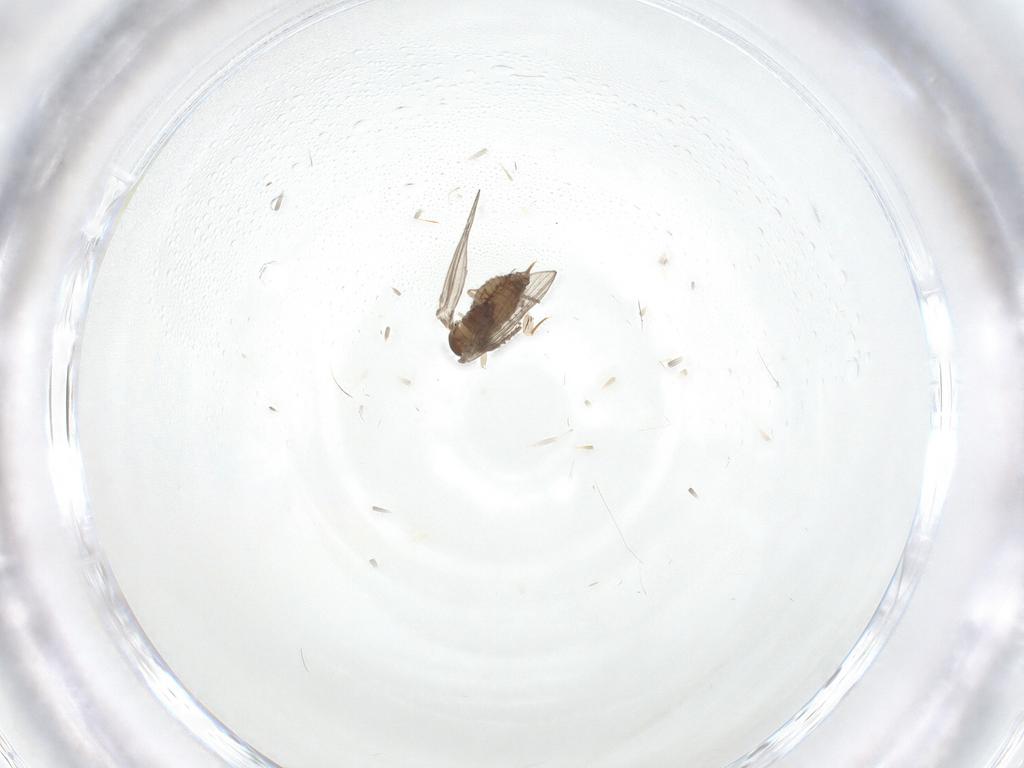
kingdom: Animalia
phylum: Arthropoda
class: Insecta
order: Diptera
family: Psychodidae
